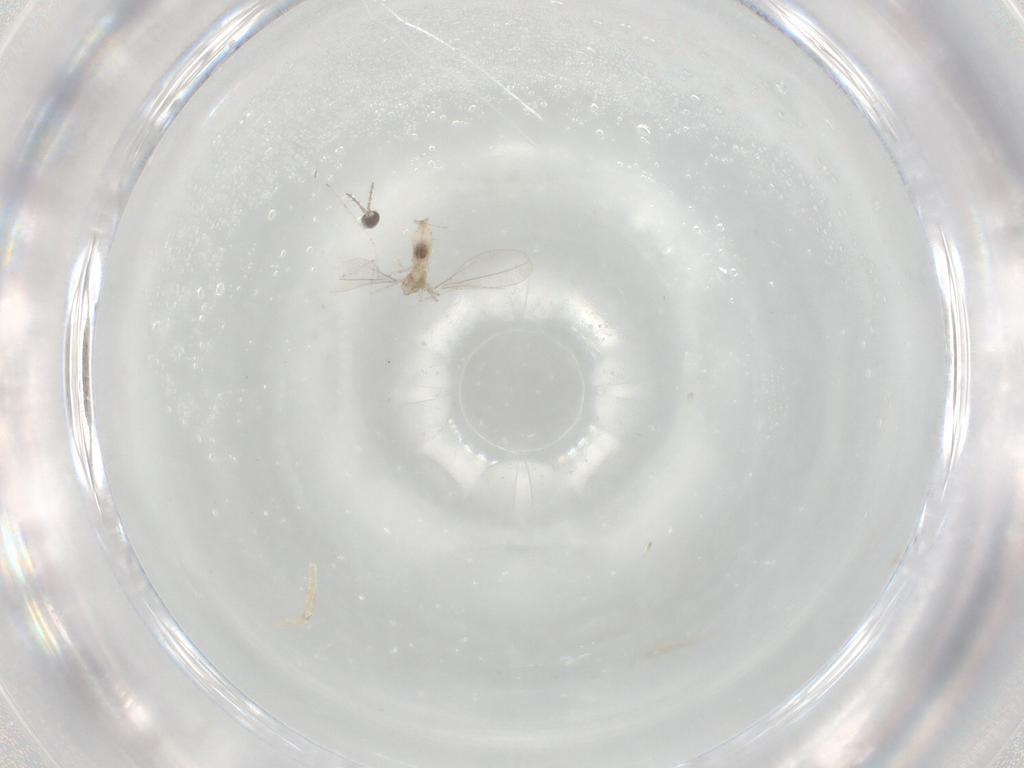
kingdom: Animalia
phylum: Arthropoda
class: Insecta
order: Diptera
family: Cecidomyiidae
